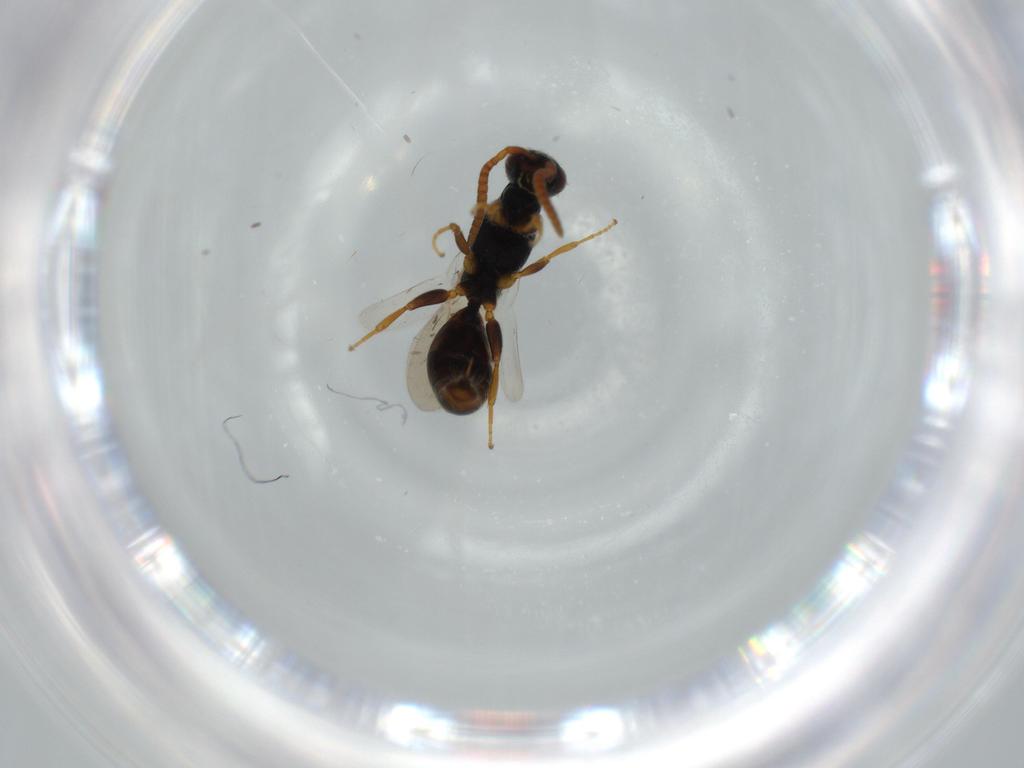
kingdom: Animalia
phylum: Arthropoda
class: Insecta
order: Hymenoptera
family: Bethylidae
